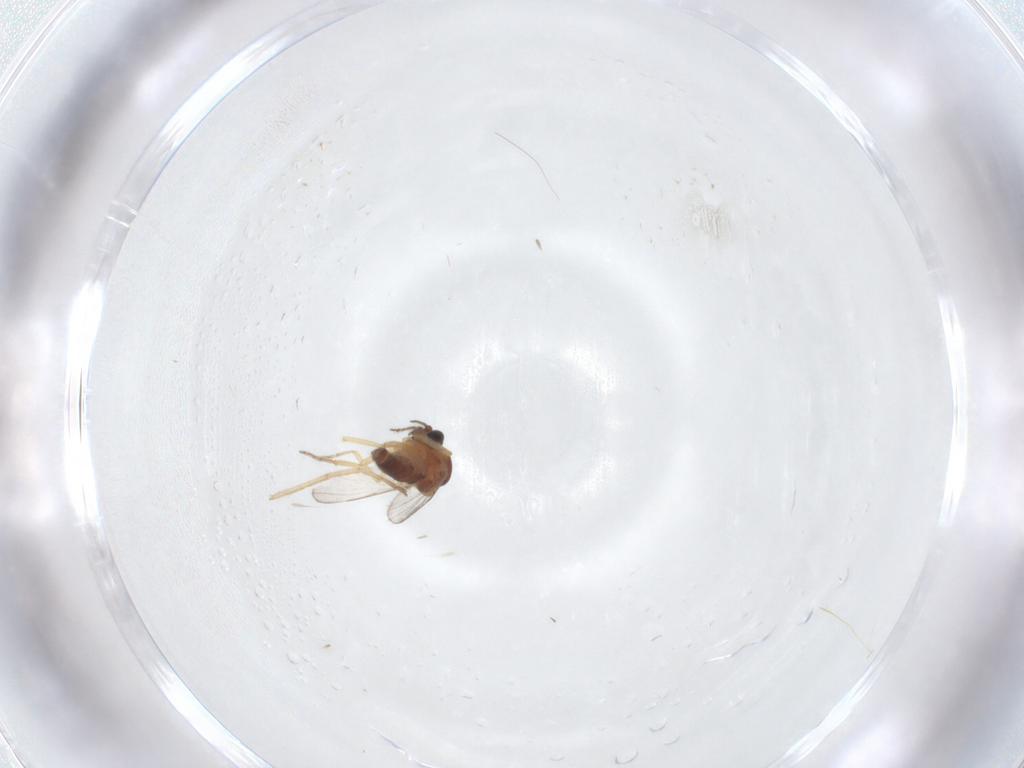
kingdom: Animalia
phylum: Arthropoda
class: Insecta
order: Diptera
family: Ceratopogonidae
